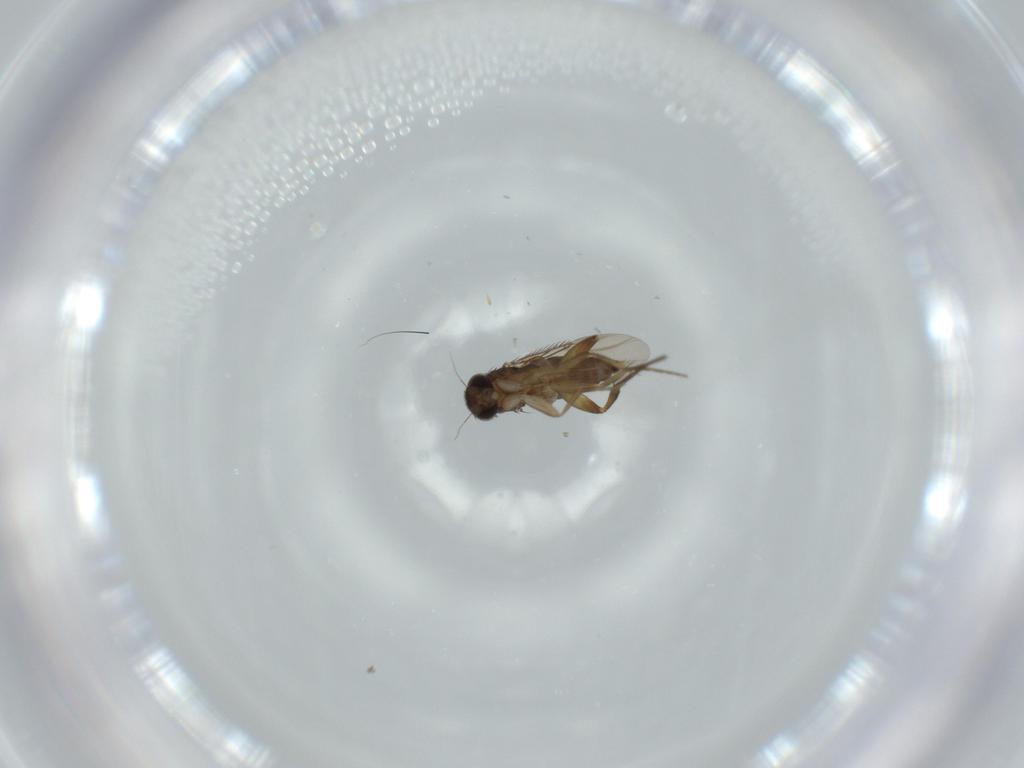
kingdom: Animalia
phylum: Arthropoda
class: Insecta
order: Diptera
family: Phoridae
